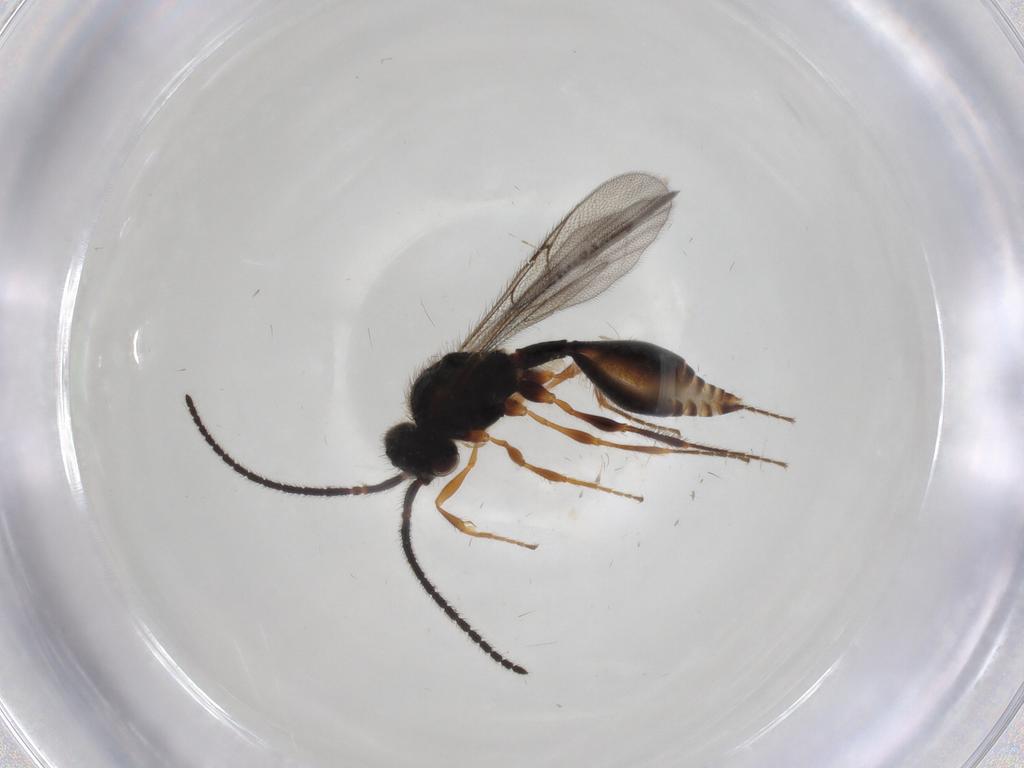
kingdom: Animalia
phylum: Arthropoda
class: Insecta
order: Hymenoptera
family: Diapriidae
